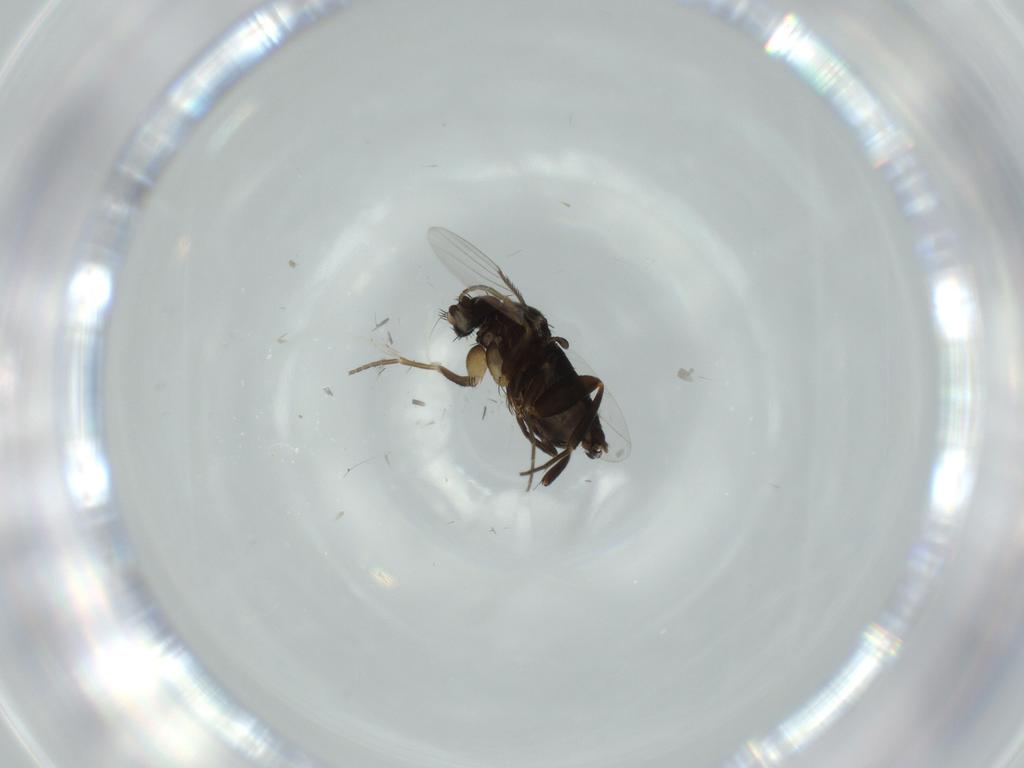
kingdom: Animalia
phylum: Arthropoda
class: Insecta
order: Diptera
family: Phoridae
